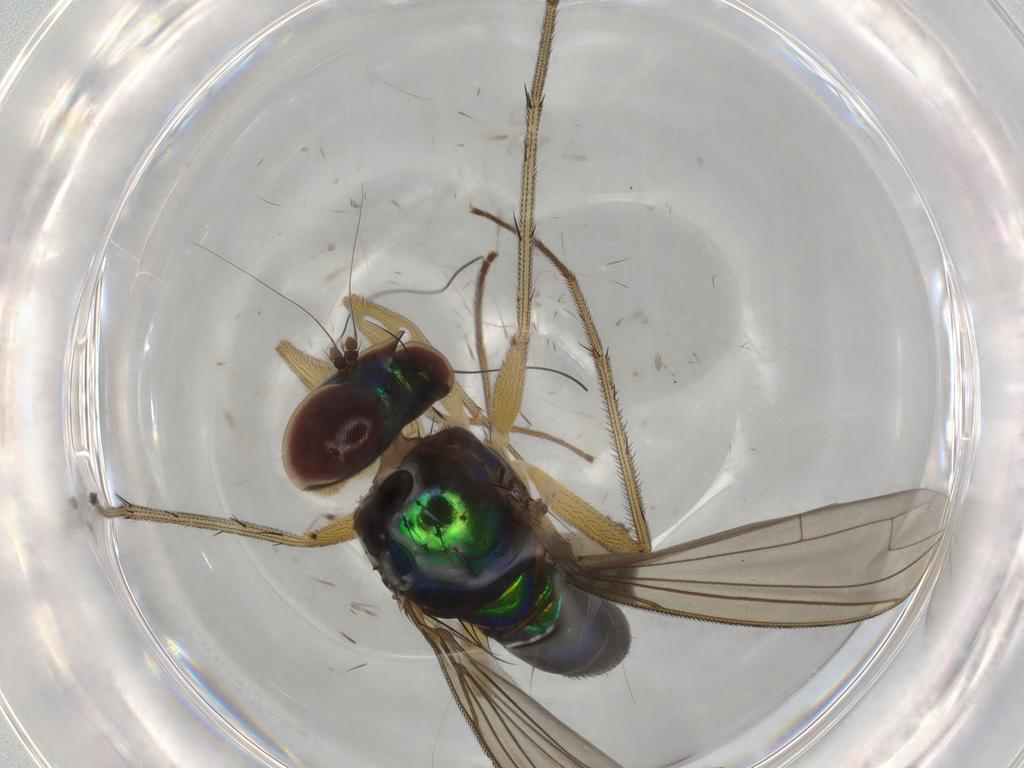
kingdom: Animalia
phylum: Arthropoda
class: Insecta
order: Diptera
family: Dolichopodidae
